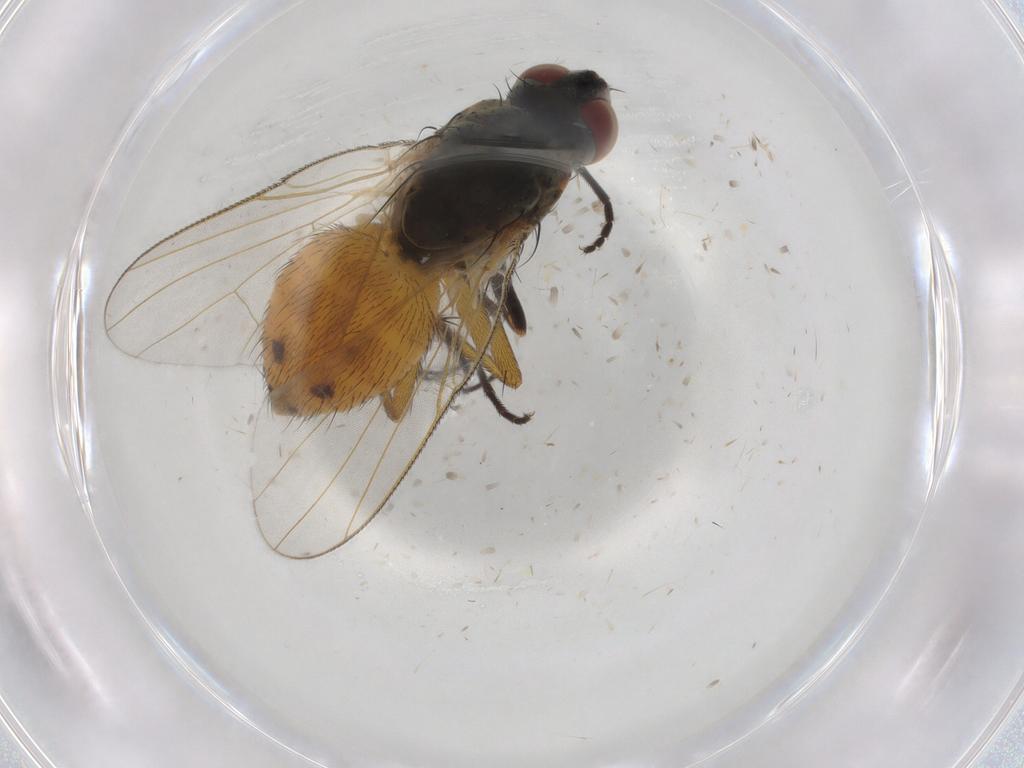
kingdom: Animalia
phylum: Arthropoda
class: Insecta
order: Diptera
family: Muscidae
